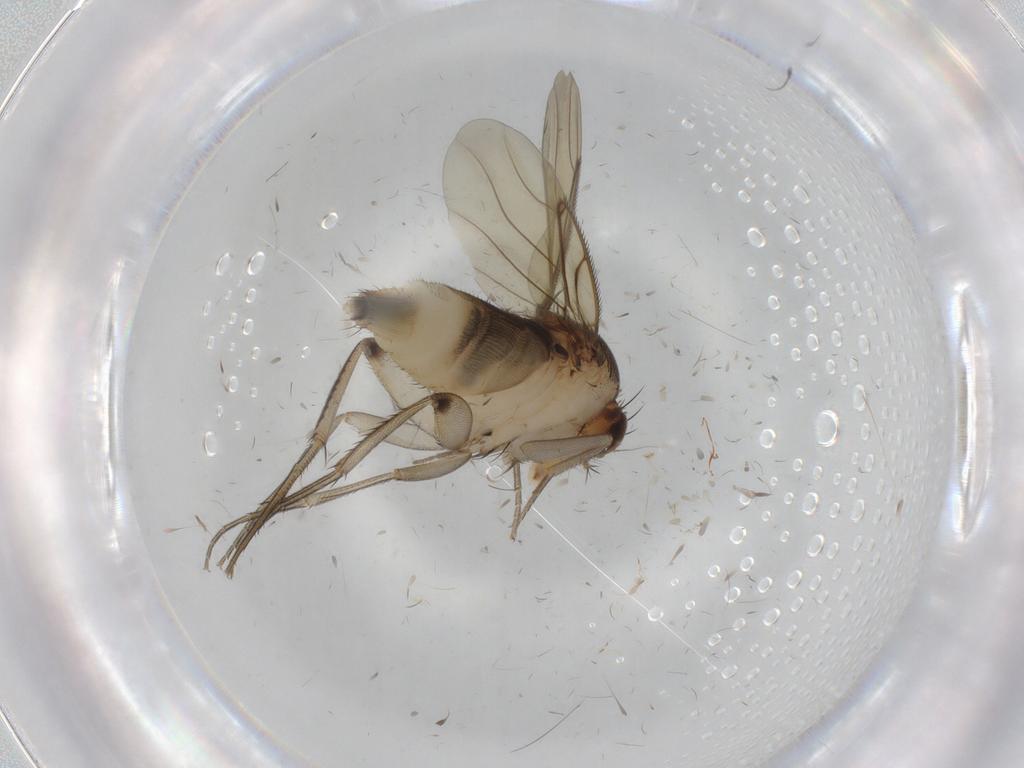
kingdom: Animalia
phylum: Arthropoda
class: Insecta
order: Diptera
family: Psychodidae
